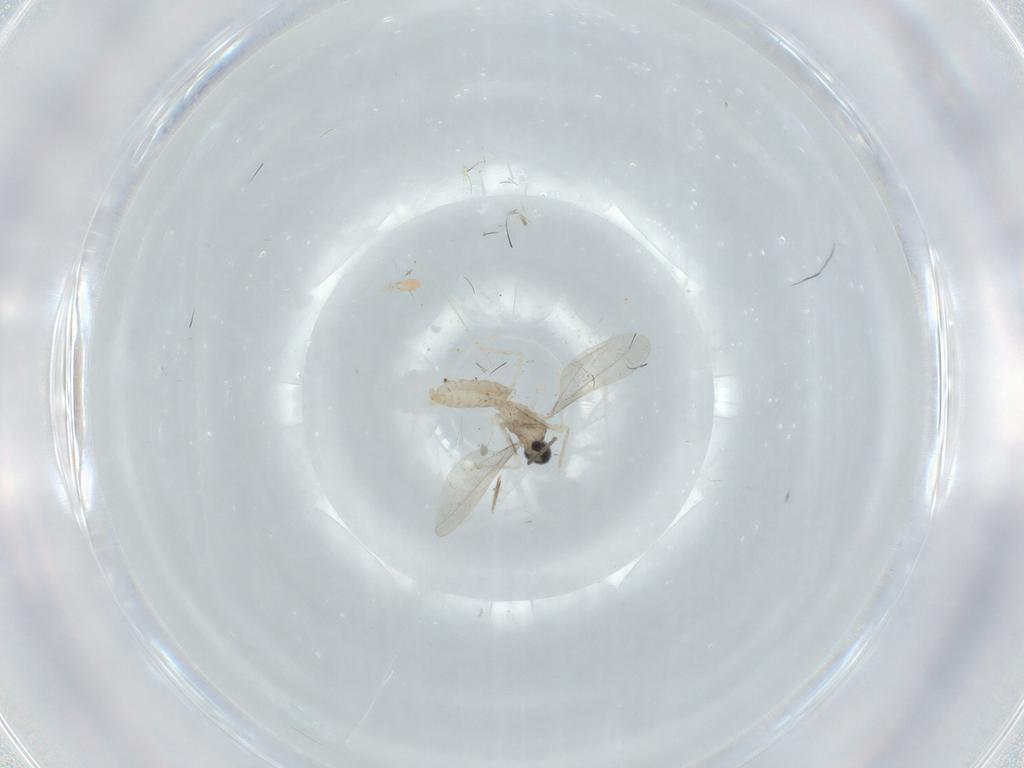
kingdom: Animalia
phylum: Arthropoda
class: Insecta
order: Diptera
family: Cecidomyiidae
